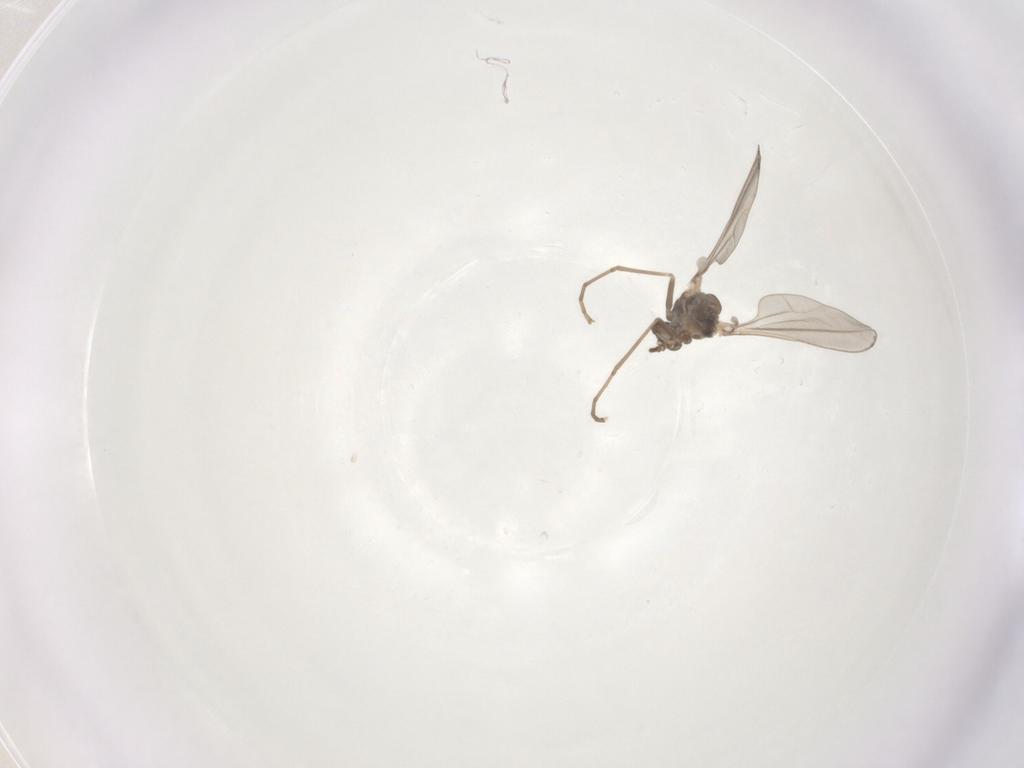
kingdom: Animalia
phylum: Arthropoda
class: Insecta
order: Diptera
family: Cecidomyiidae
